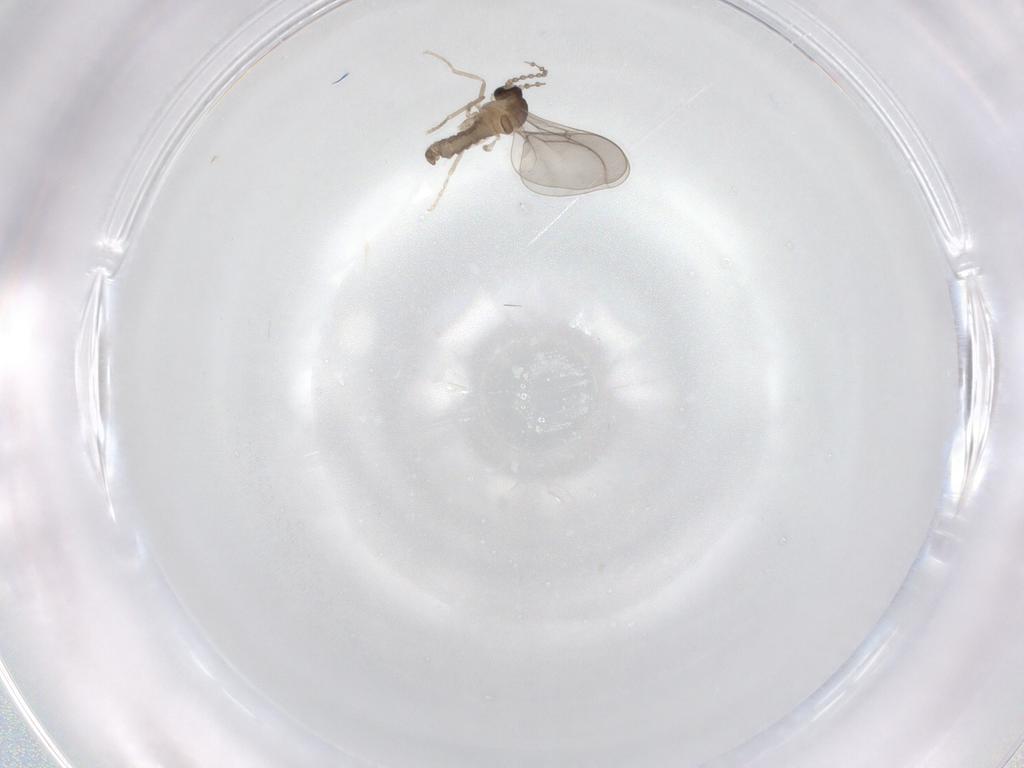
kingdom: Animalia
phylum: Arthropoda
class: Insecta
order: Diptera
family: Cecidomyiidae
